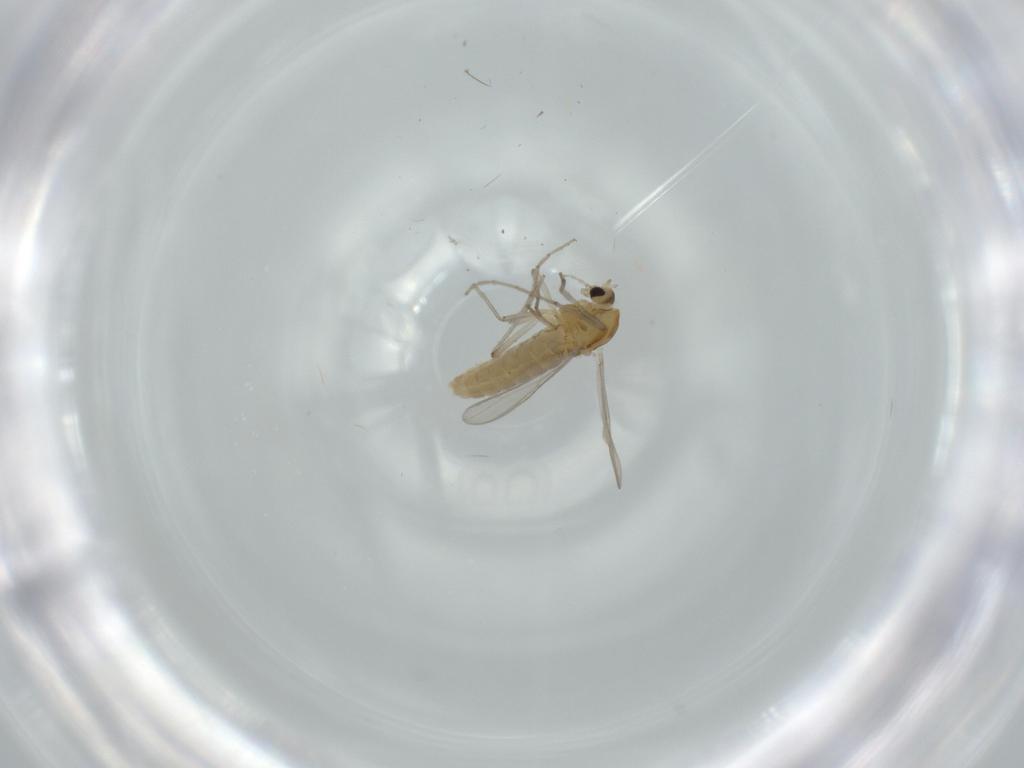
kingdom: Animalia
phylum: Arthropoda
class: Insecta
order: Diptera
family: Chironomidae
